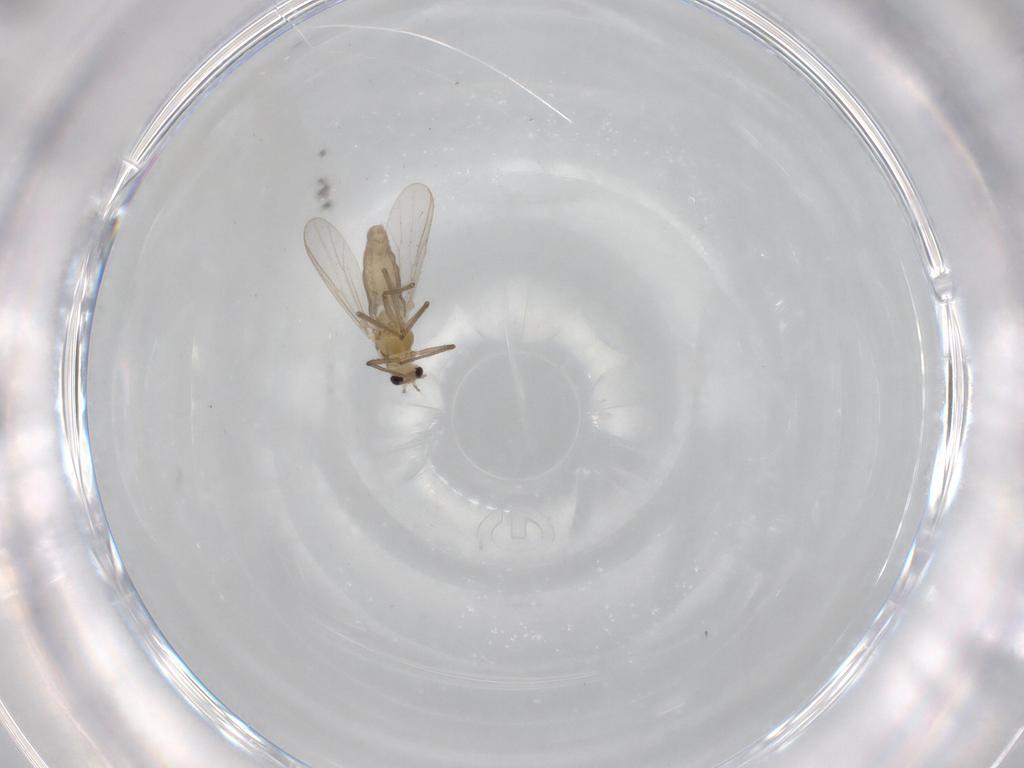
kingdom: Animalia
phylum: Arthropoda
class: Insecta
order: Diptera
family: Chironomidae
